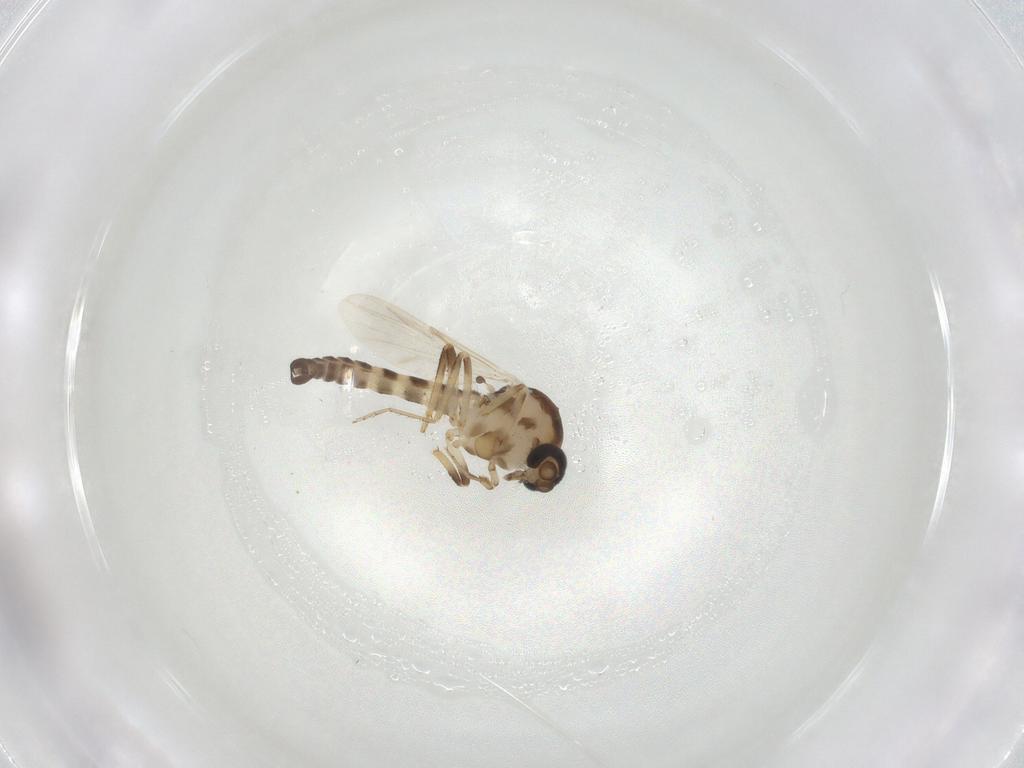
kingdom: Animalia
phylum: Arthropoda
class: Insecta
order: Diptera
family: Ceratopogonidae
